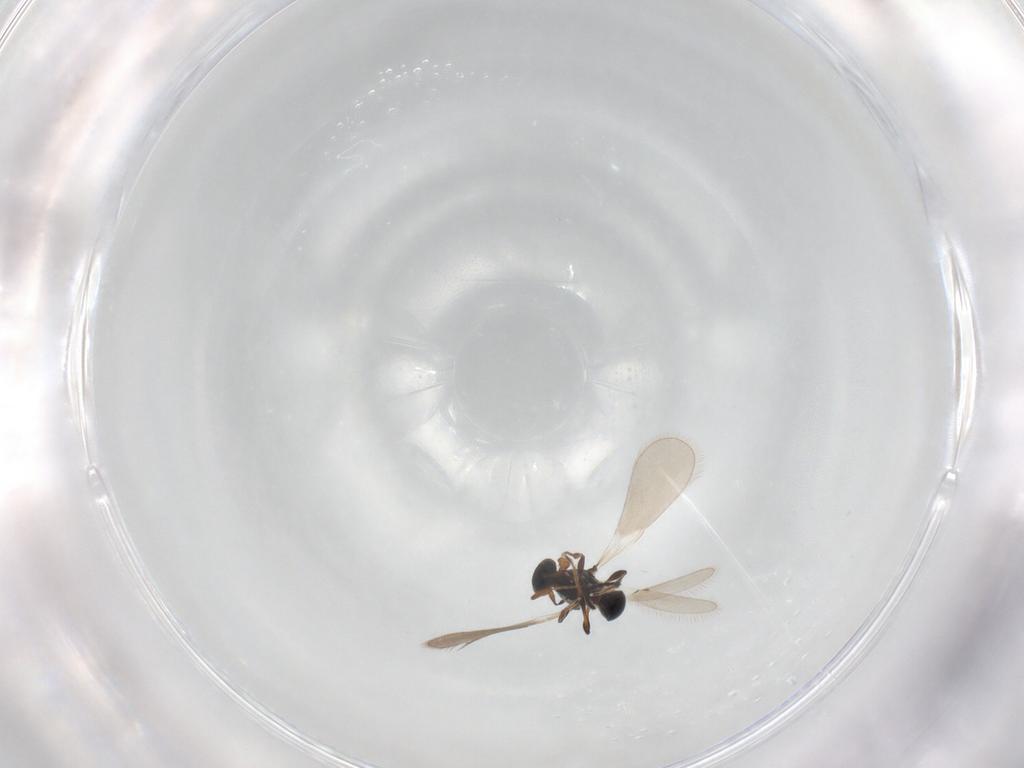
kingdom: Animalia
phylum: Arthropoda
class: Insecta
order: Hymenoptera
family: Platygastridae
